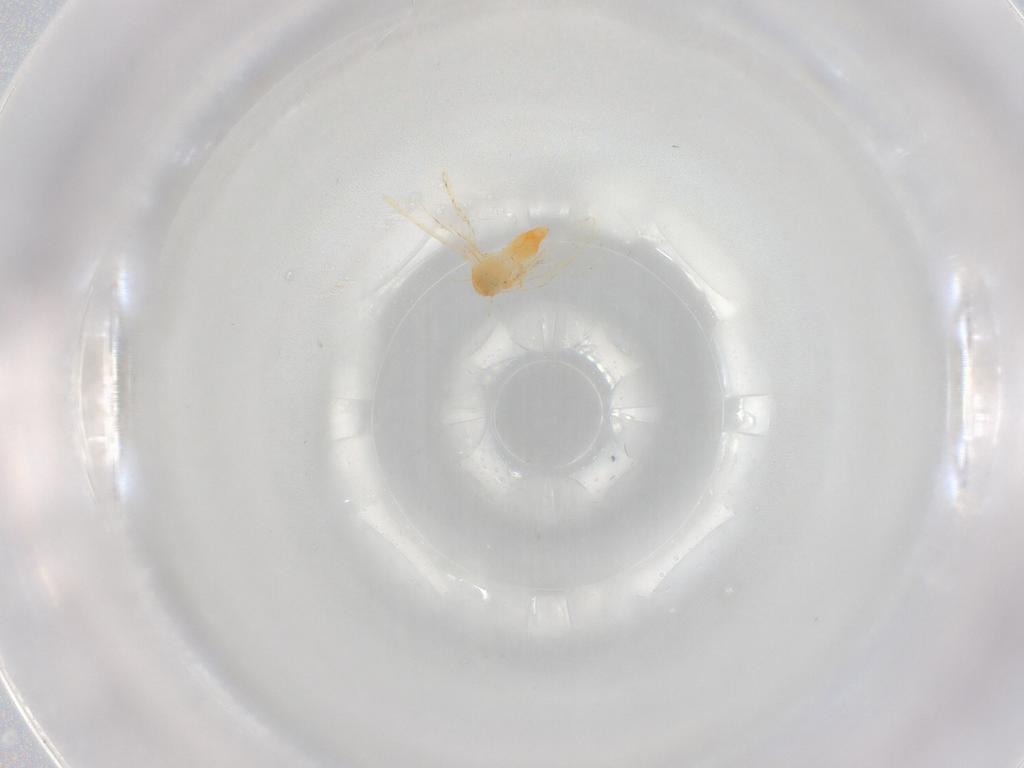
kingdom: Animalia
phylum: Arthropoda
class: Insecta
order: Hemiptera
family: Aleyrodidae
